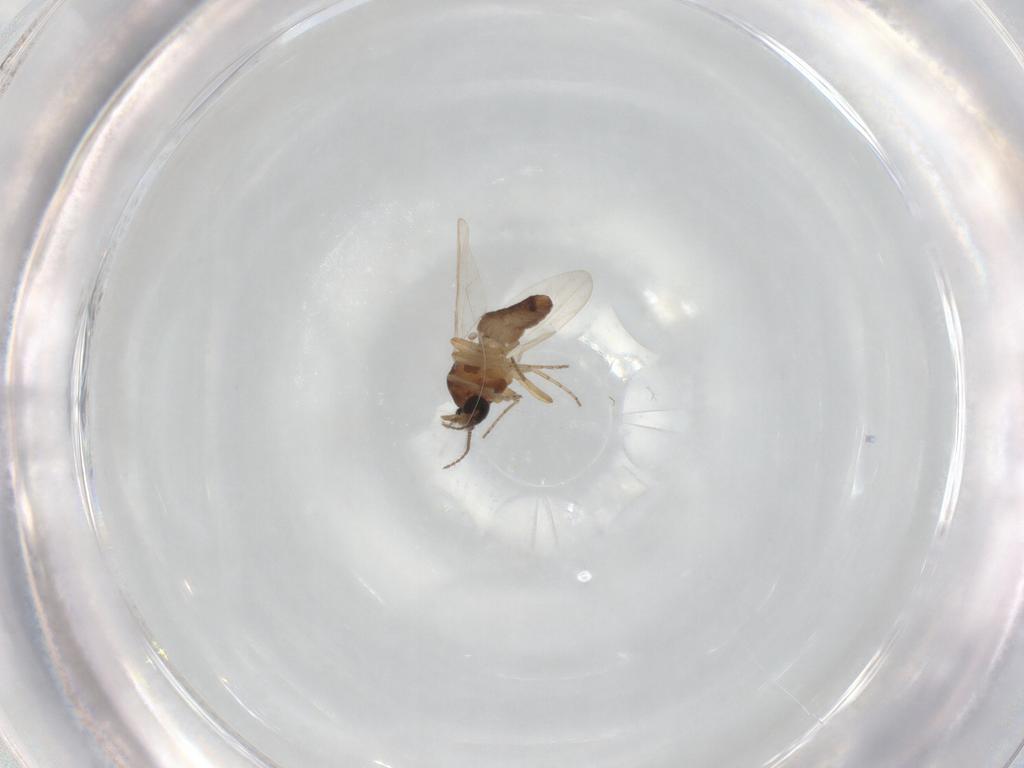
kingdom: Animalia
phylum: Arthropoda
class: Insecta
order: Diptera
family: Ceratopogonidae
